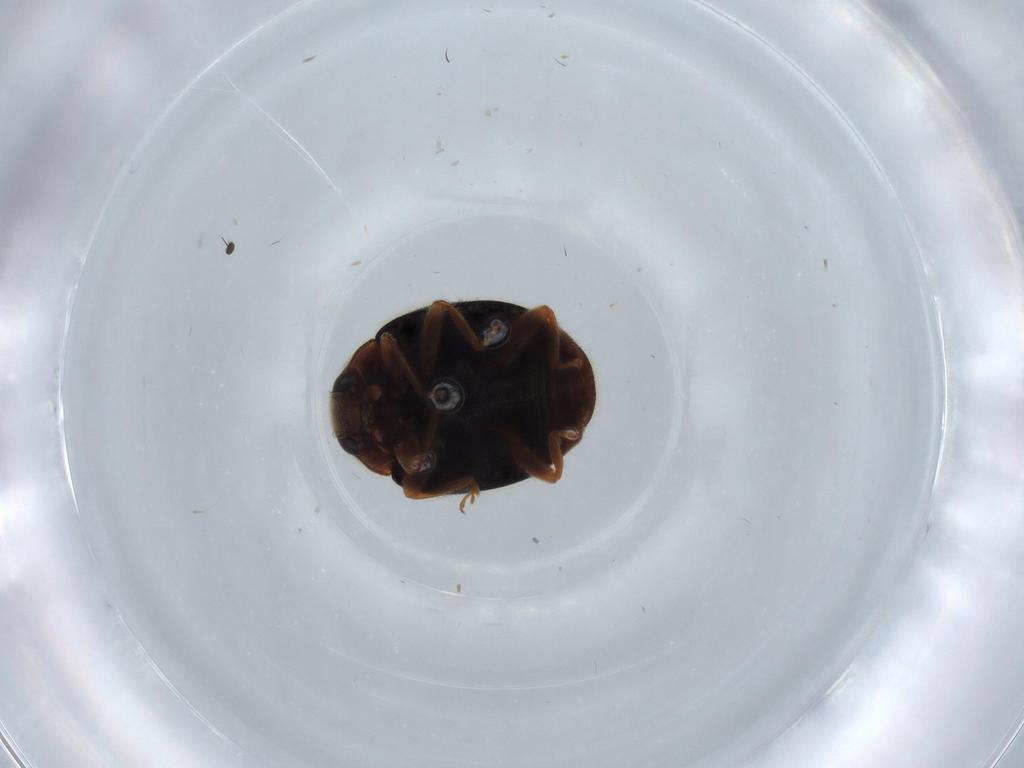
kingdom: Animalia
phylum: Arthropoda
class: Insecta
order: Coleoptera
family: Coccinellidae
